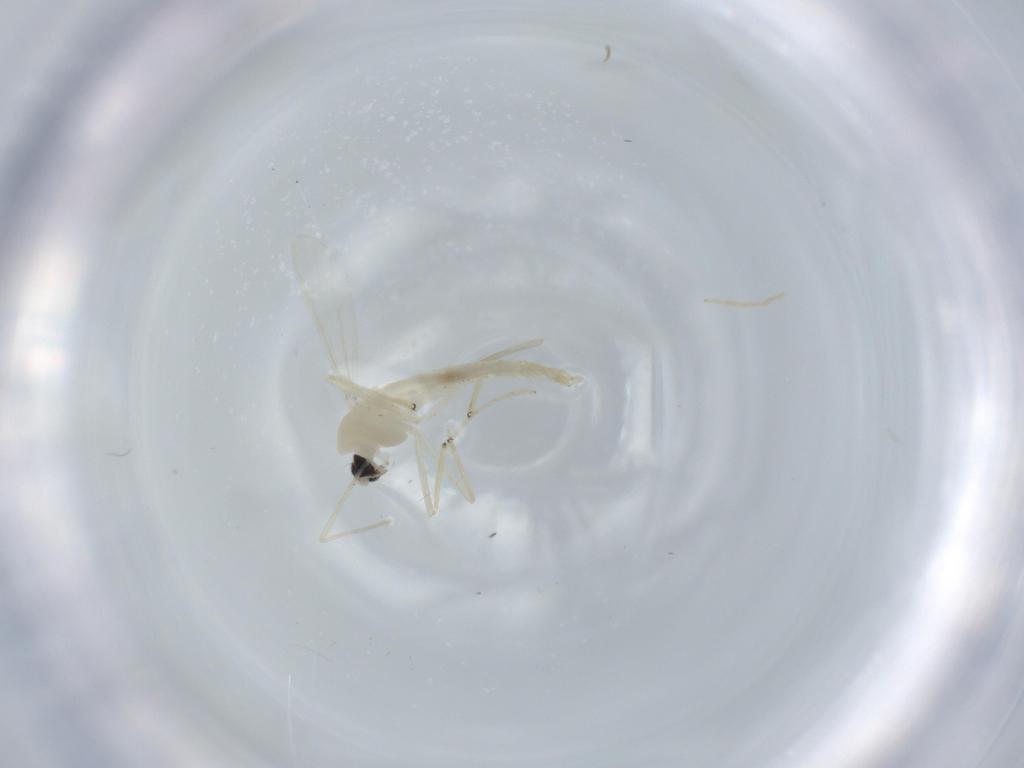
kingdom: Animalia
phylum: Arthropoda
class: Insecta
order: Diptera
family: Chironomidae
